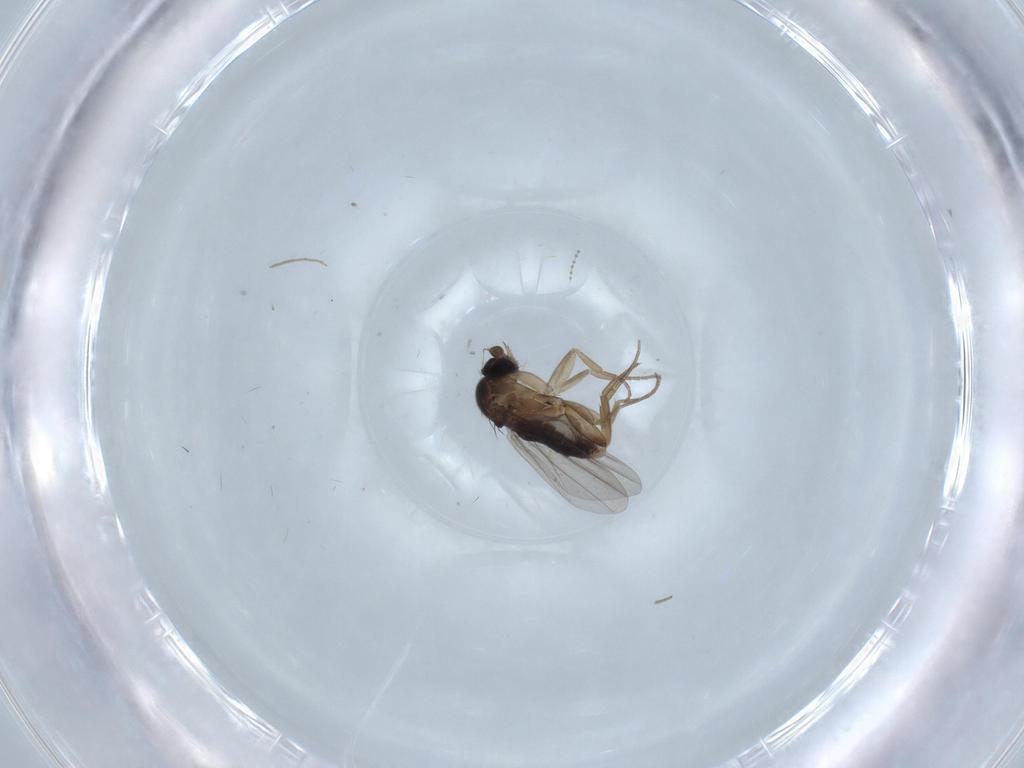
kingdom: Animalia
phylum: Arthropoda
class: Insecta
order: Diptera
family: Phoridae
